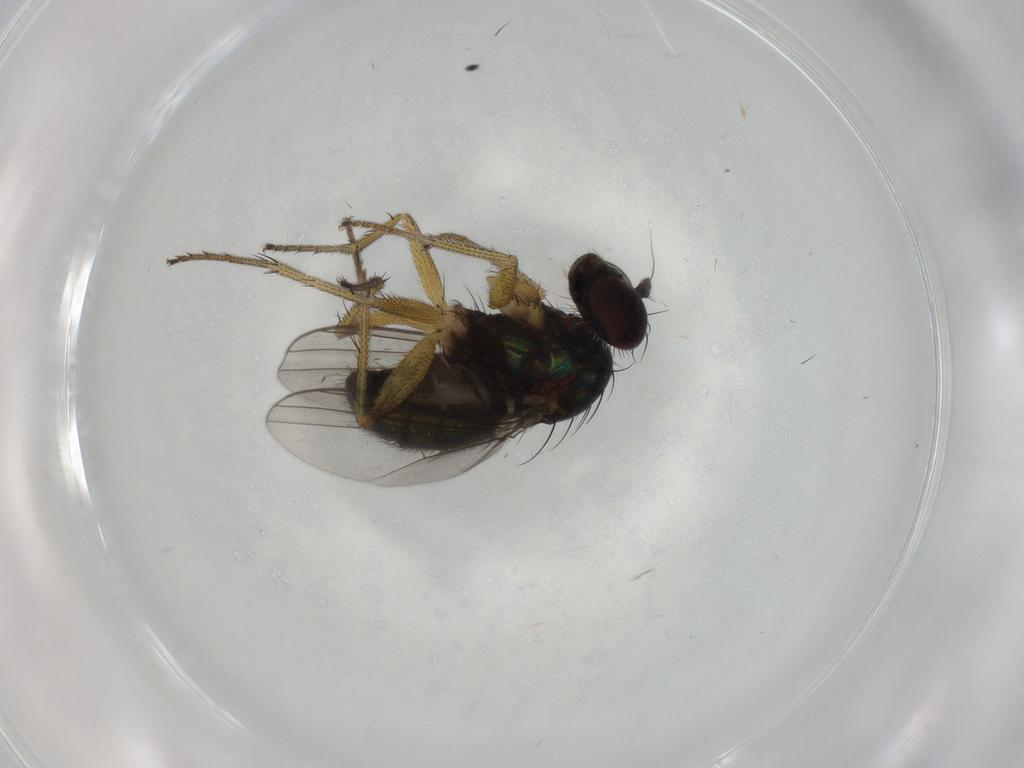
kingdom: Animalia
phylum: Arthropoda
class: Insecta
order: Diptera
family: Dolichopodidae
